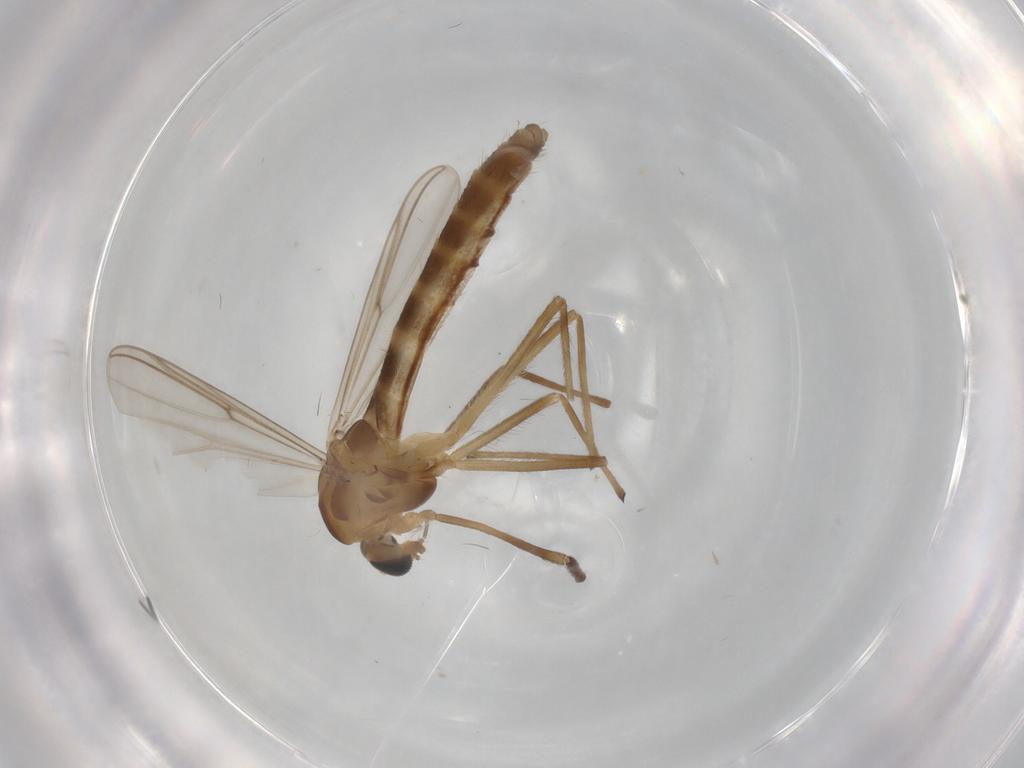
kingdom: Animalia
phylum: Arthropoda
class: Insecta
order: Diptera
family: Chironomidae
